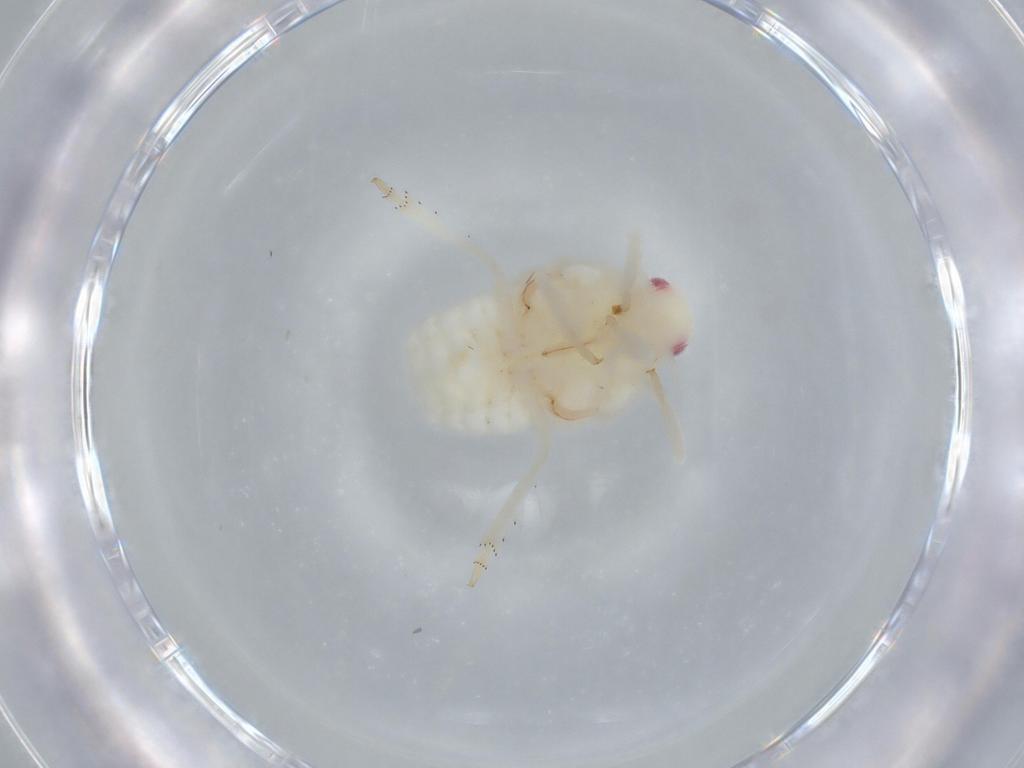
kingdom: Animalia
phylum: Arthropoda
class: Insecta
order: Hemiptera
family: Flatidae
